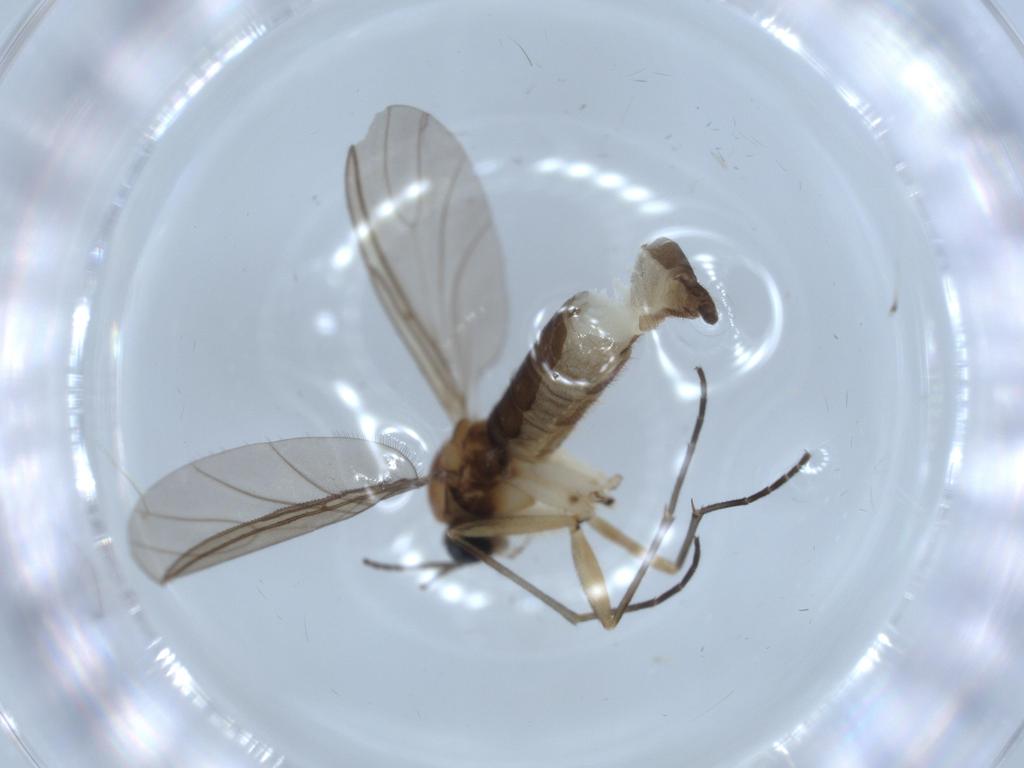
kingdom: Animalia
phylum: Arthropoda
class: Insecta
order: Diptera
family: Sciaridae
